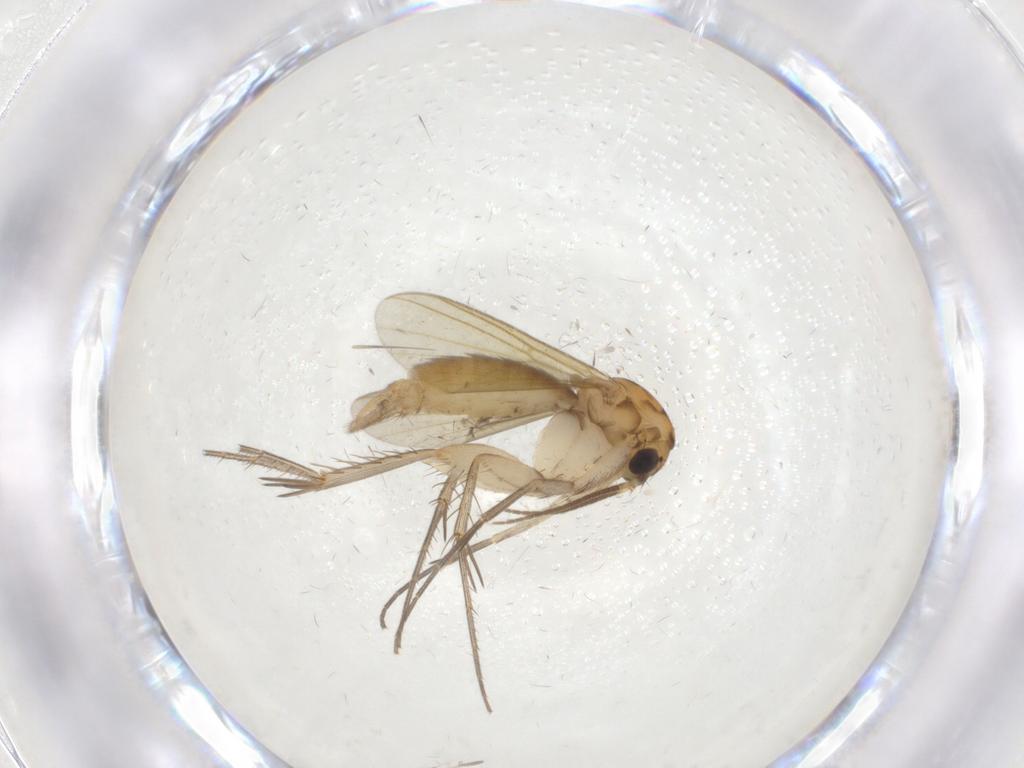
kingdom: Animalia
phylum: Arthropoda
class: Insecta
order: Diptera
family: Mycetophilidae
